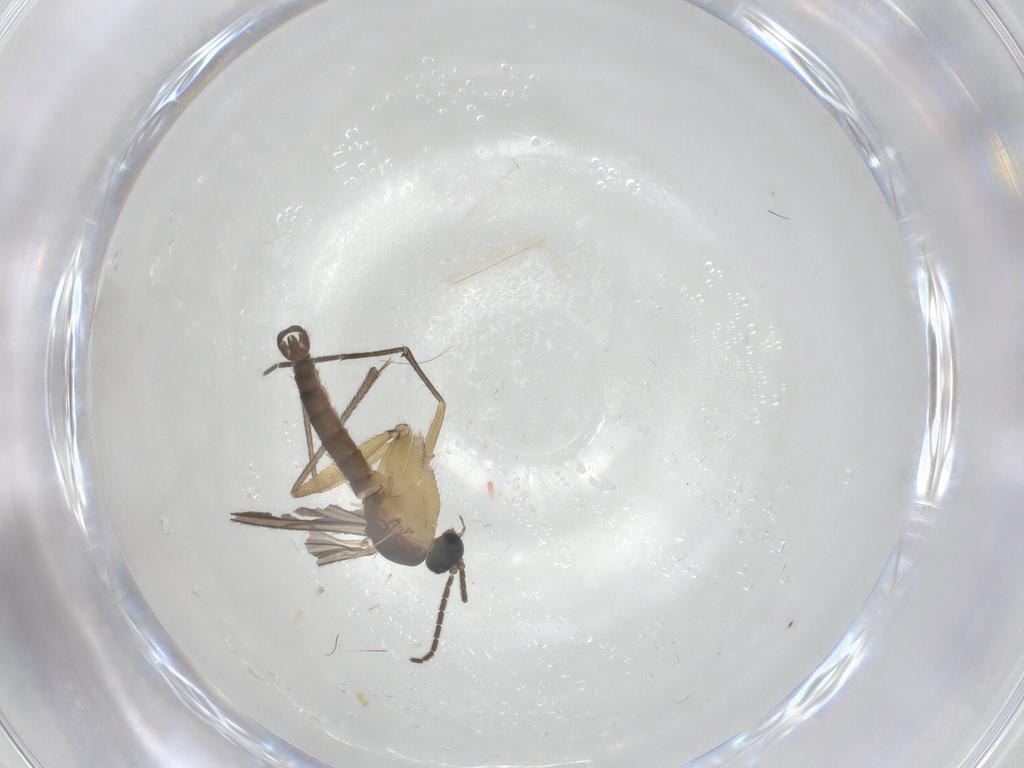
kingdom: Animalia
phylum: Arthropoda
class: Insecta
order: Diptera
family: Sciaridae
